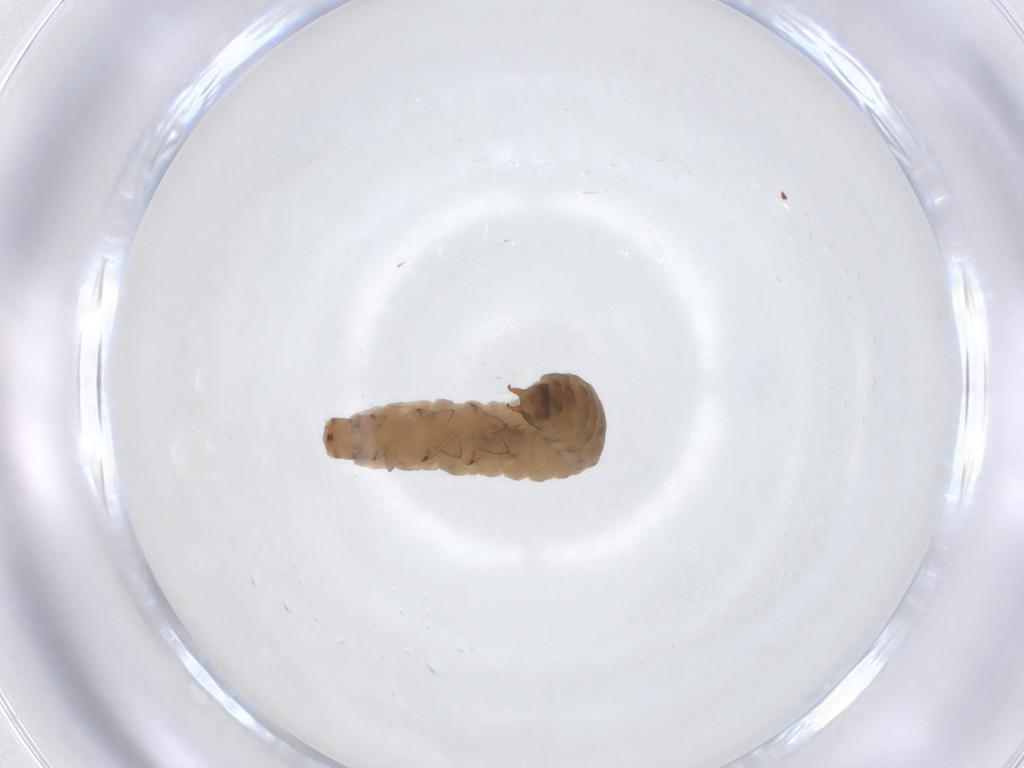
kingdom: Animalia
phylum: Arthropoda
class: Insecta
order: Coleoptera
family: Melyridae
